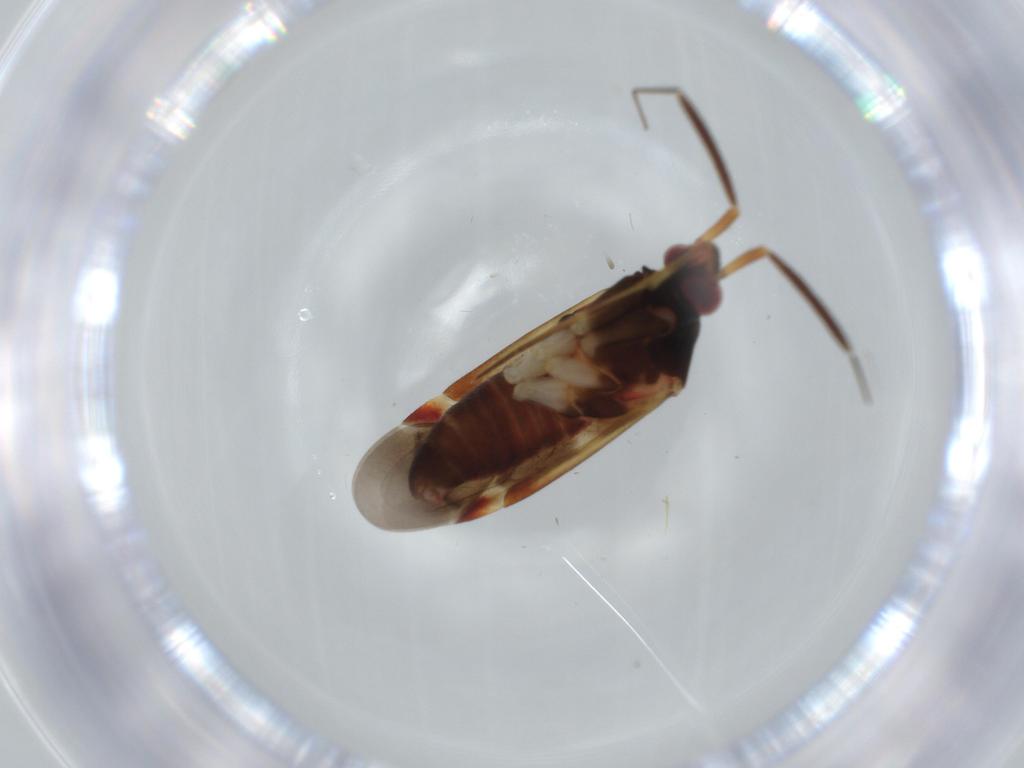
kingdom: Animalia
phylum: Arthropoda
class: Insecta
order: Hemiptera
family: Miridae
